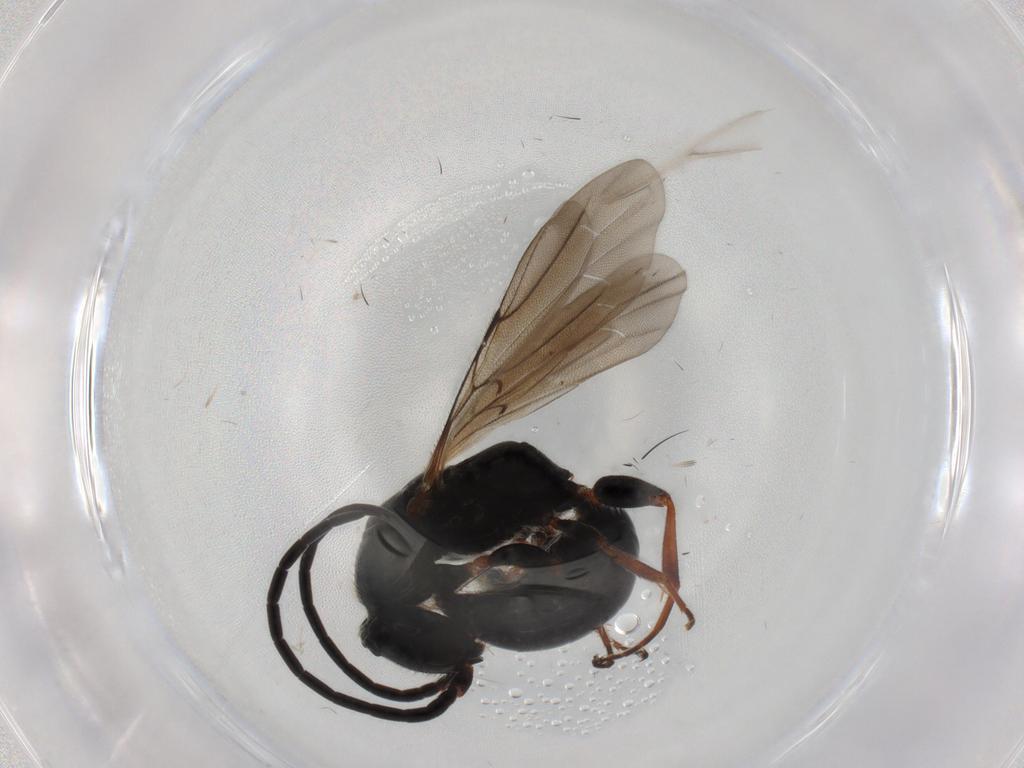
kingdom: Animalia
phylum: Arthropoda
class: Insecta
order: Hymenoptera
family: Bethylidae
